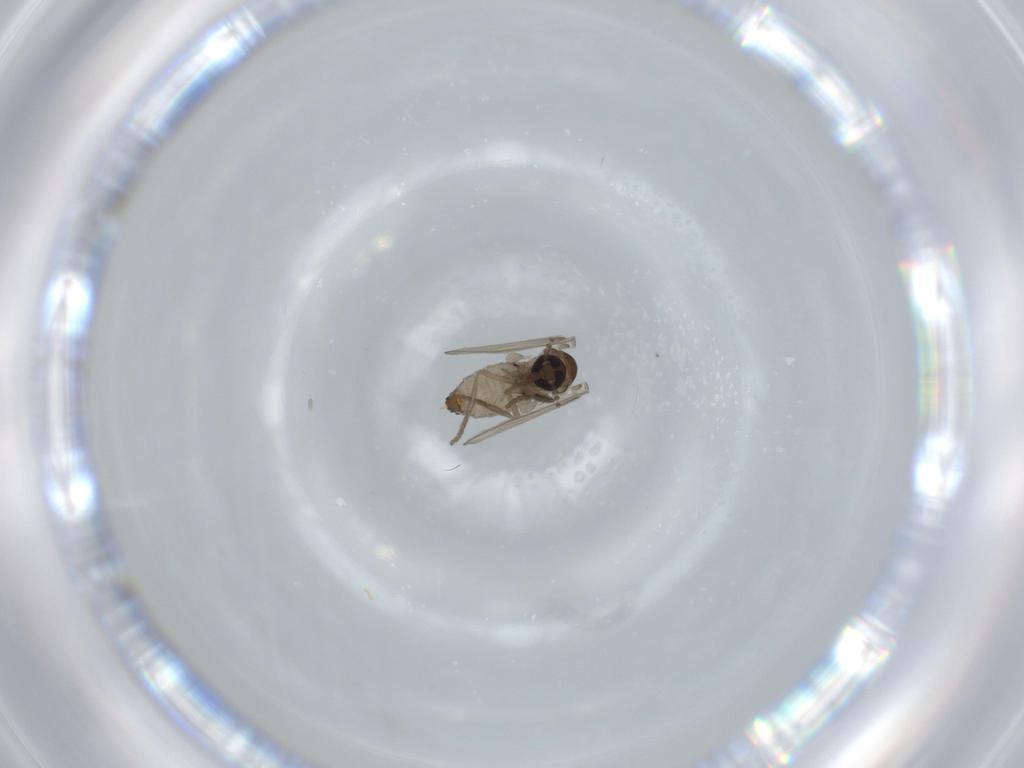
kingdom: Animalia
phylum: Arthropoda
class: Insecta
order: Diptera
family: Psychodidae
